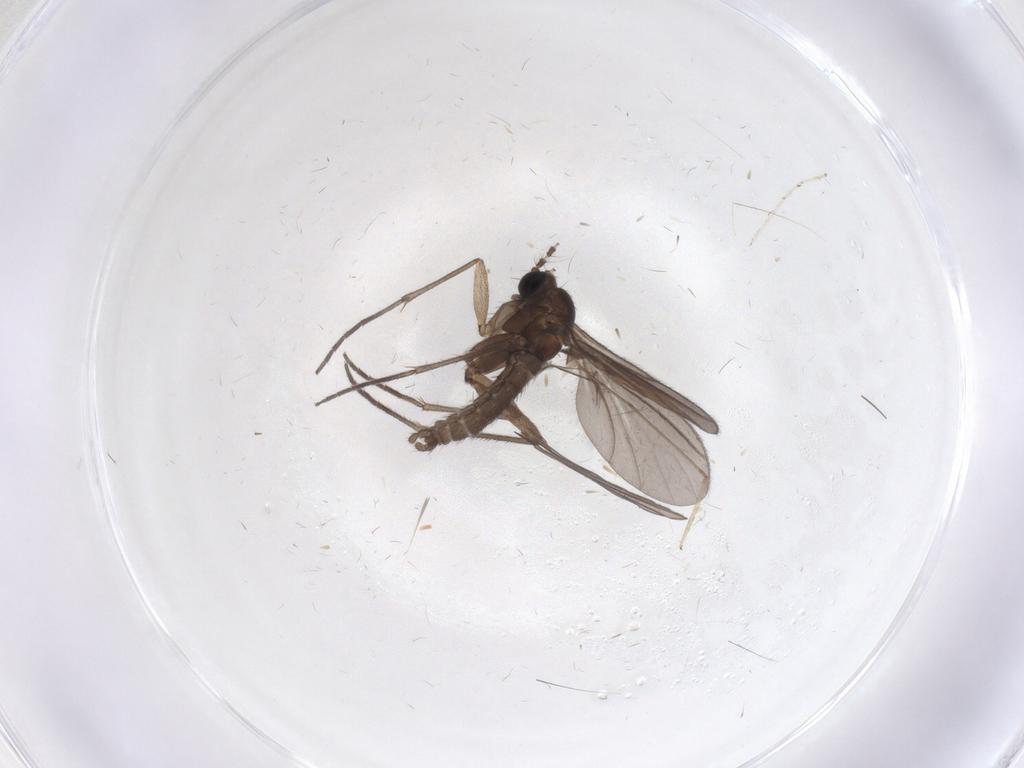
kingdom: Animalia
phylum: Arthropoda
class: Insecta
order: Diptera
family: Sciaridae
